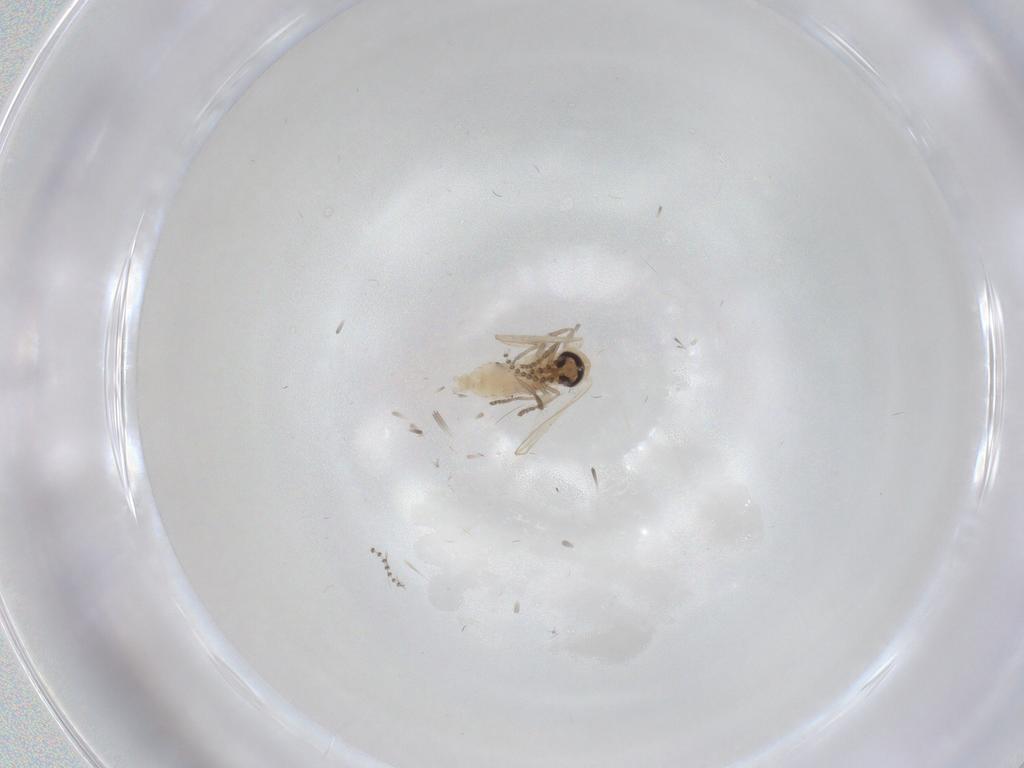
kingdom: Animalia
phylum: Arthropoda
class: Insecta
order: Diptera
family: Psychodidae
